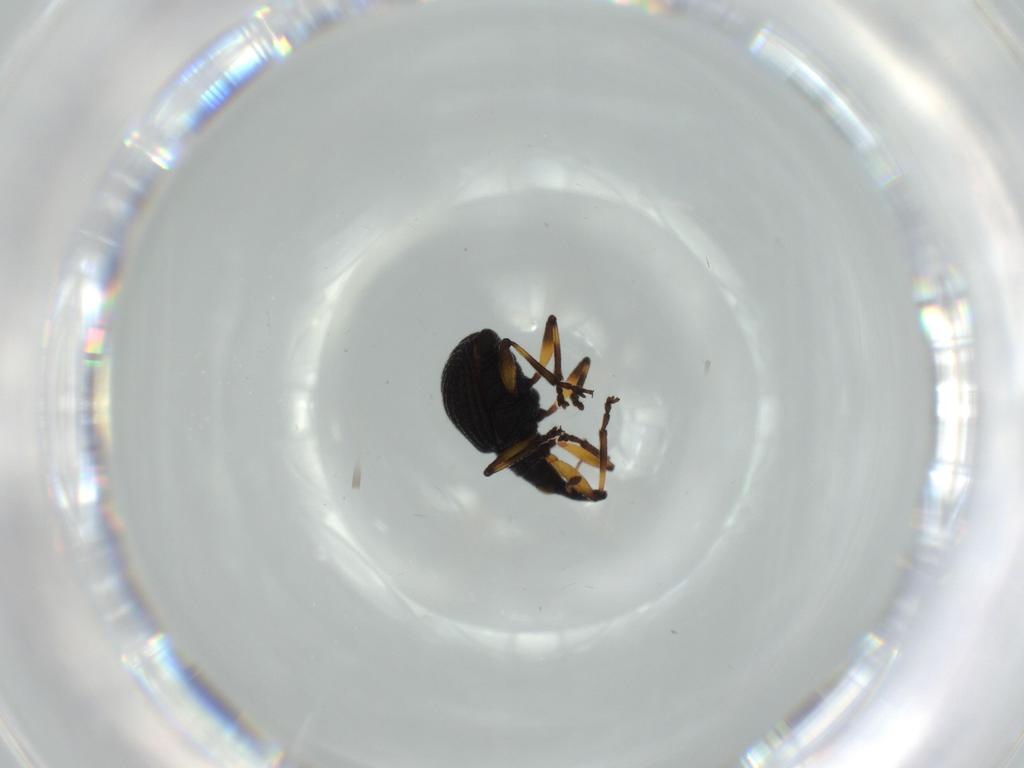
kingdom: Animalia
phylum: Arthropoda
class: Insecta
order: Coleoptera
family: Brentidae
